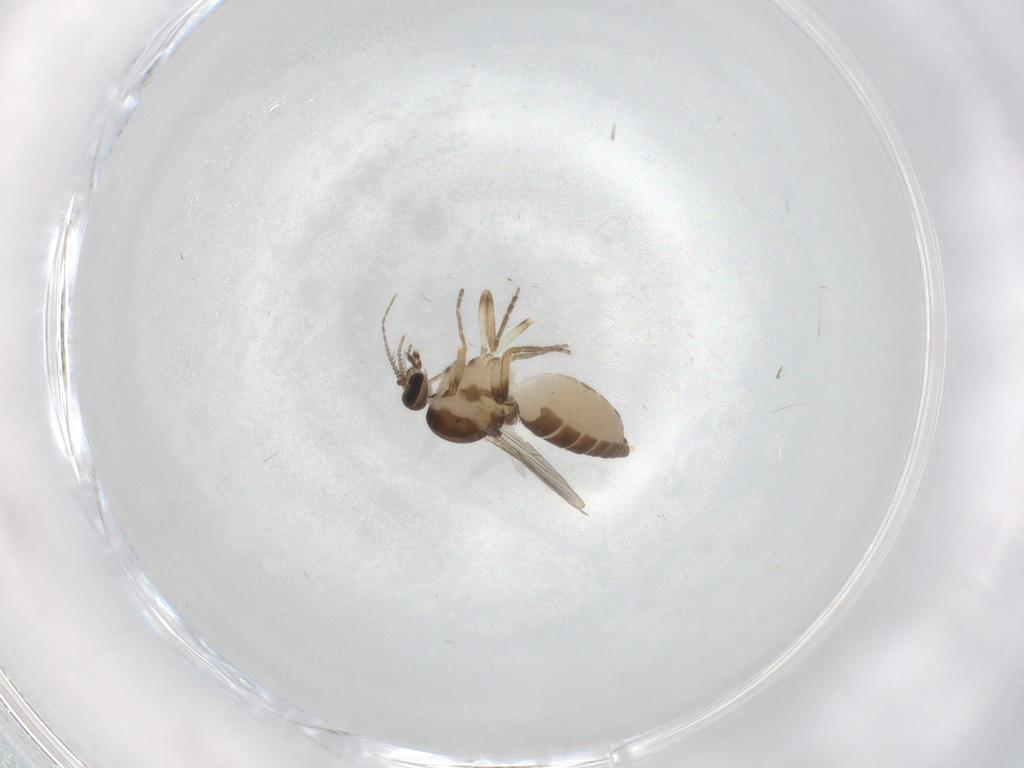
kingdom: Animalia
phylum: Arthropoda
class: Insecta
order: Diptera
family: Ceratopogonidae
